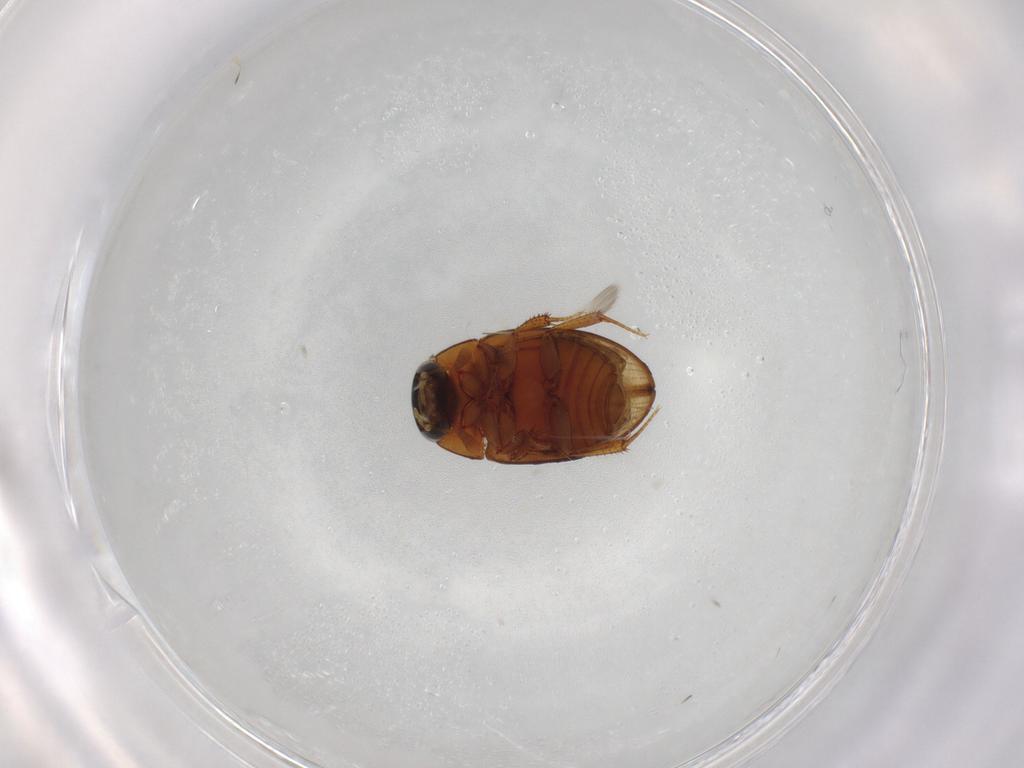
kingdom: Animalia
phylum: Arthropoda
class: Insecta
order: Coleoptera
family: Hydrophilidae
